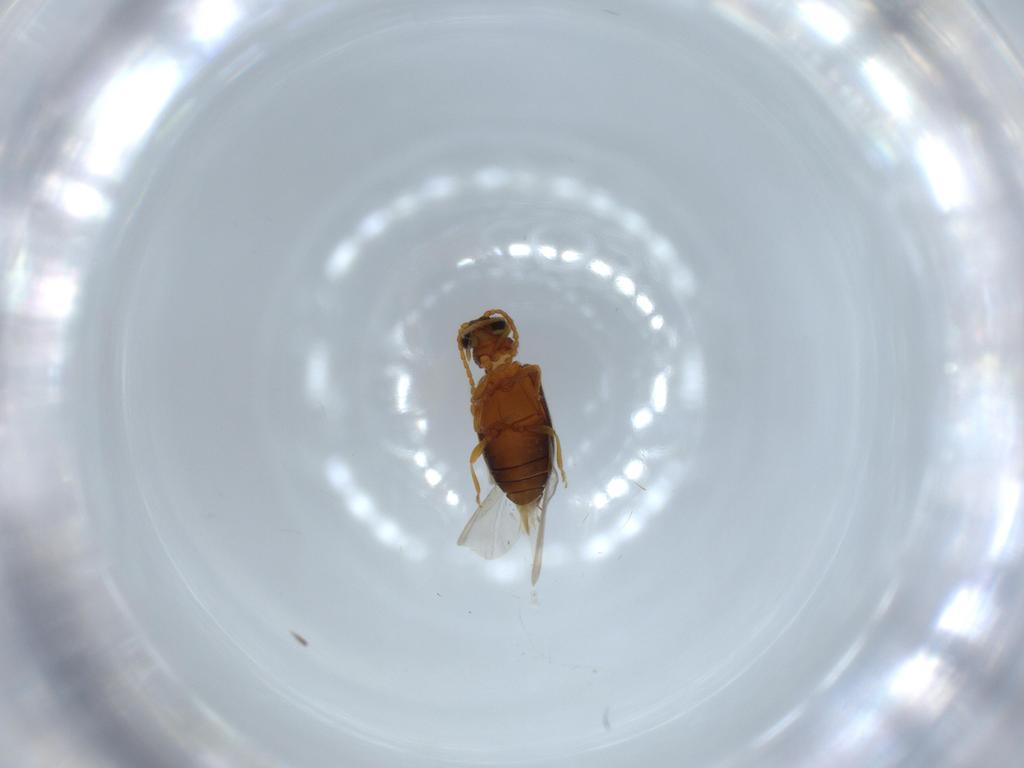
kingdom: Animalia
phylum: Arthropoda
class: Insecta
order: Coleoptera
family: Aderidae
